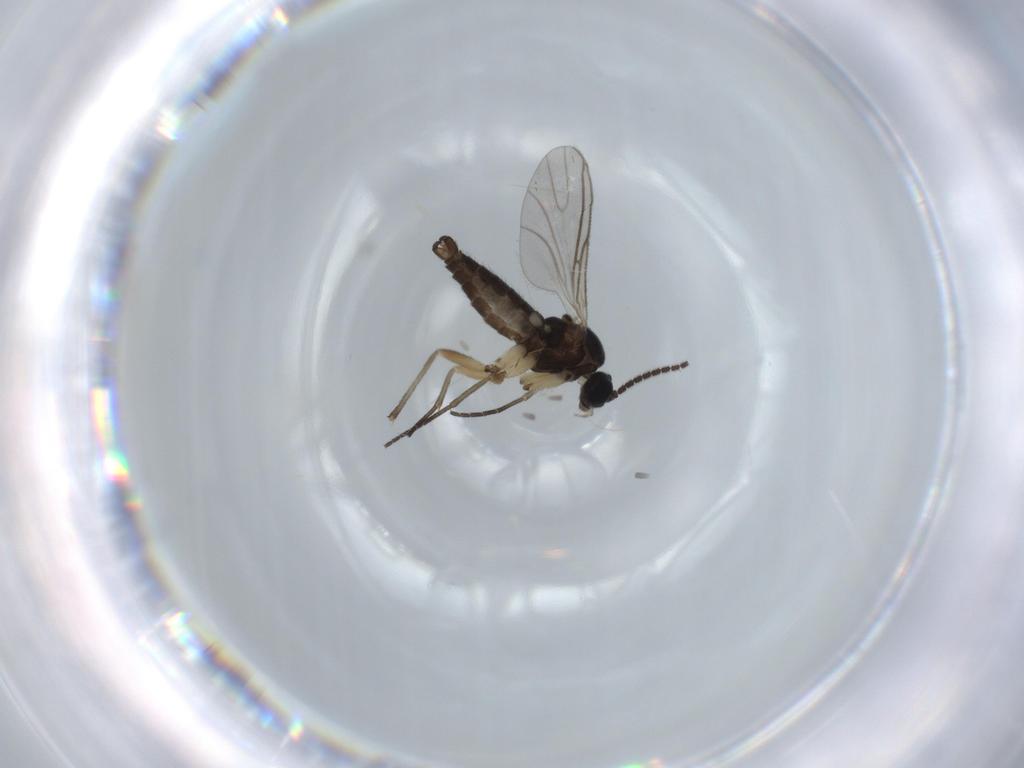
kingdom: Animalia
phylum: Arthropoda
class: Insecta
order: Diptera
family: Sciaridae
